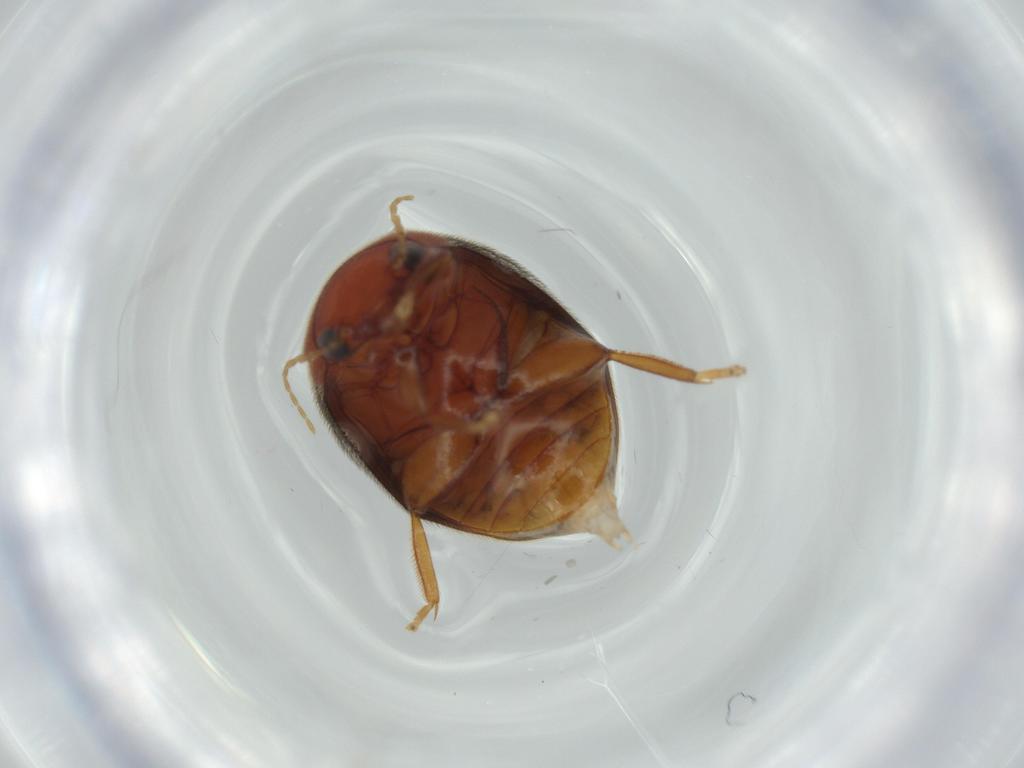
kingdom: Animalia
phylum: Arthropoda
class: Insecta
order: Coleoptera
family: Scirtidae
